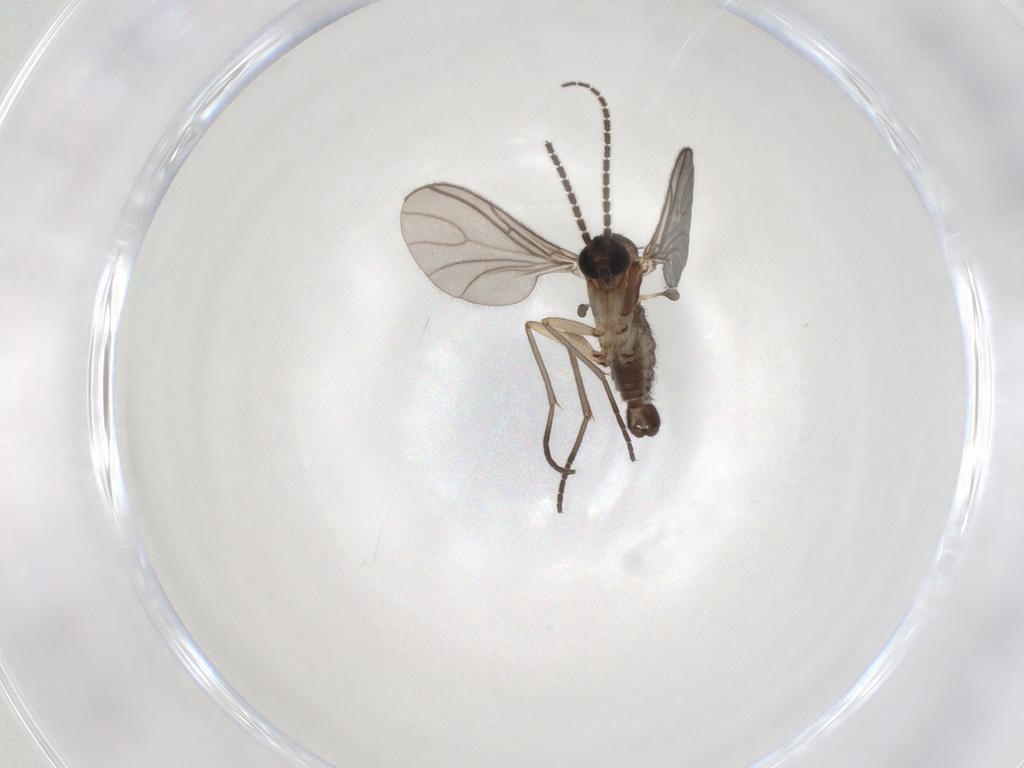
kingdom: Animalia
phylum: Arthropoda
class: Insecta
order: Diptera
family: Sciaridae
